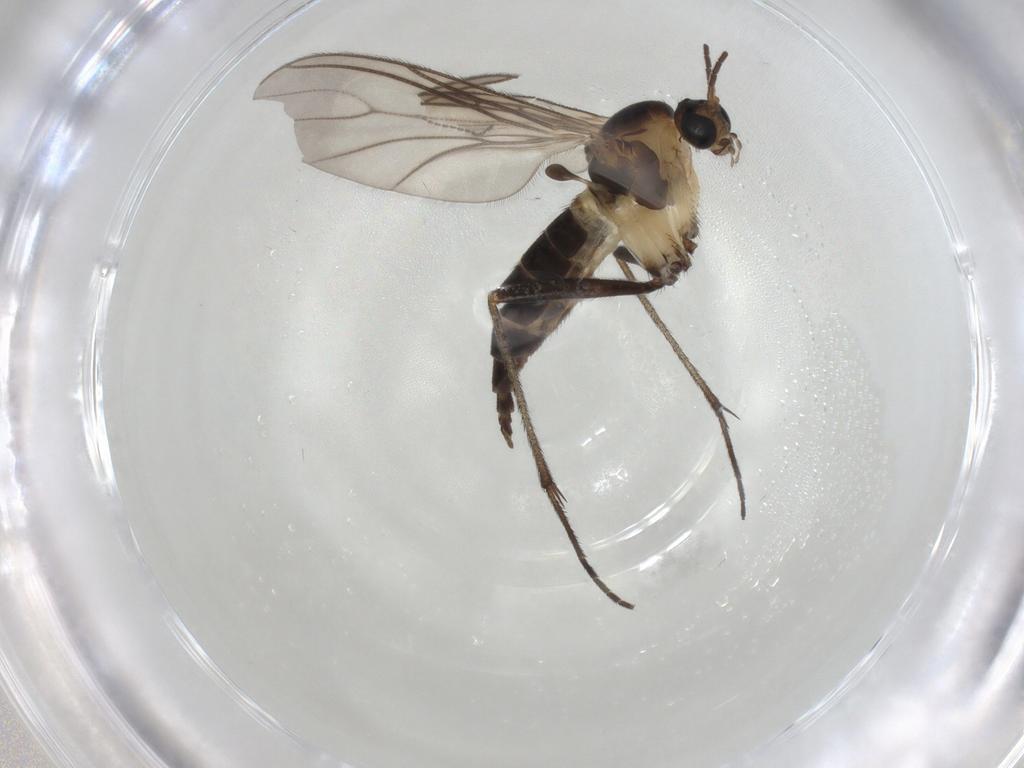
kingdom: Animalia
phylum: Arthropoda
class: Insecta
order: Diptera
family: Sciaridae
